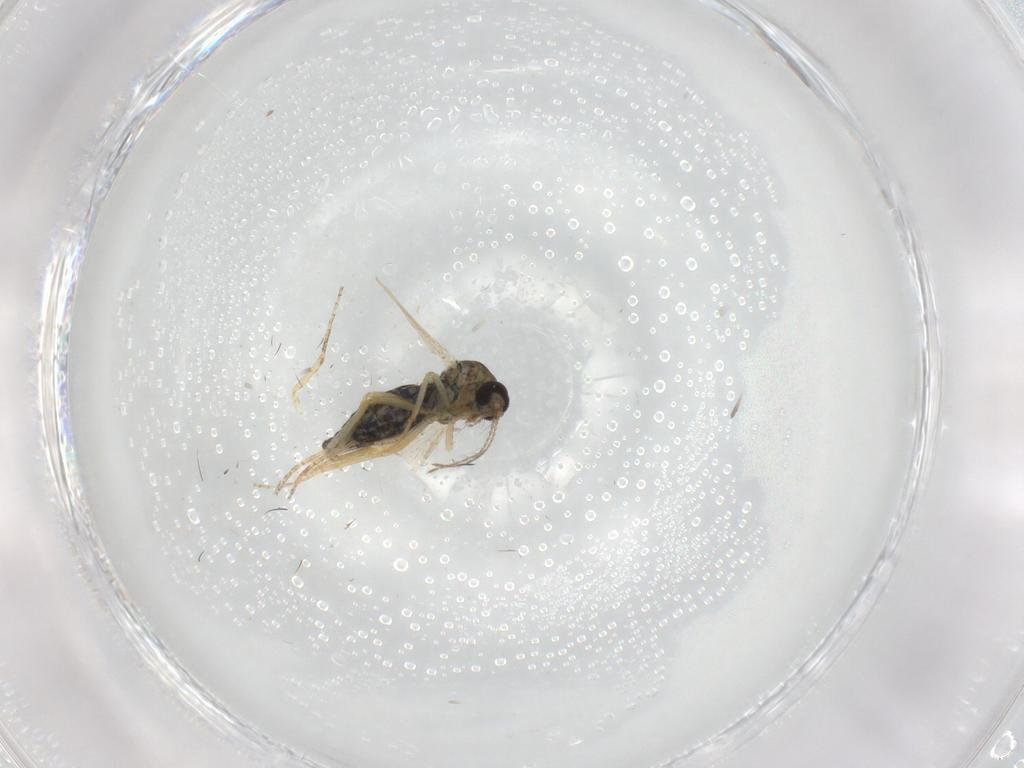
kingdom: Animalia
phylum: Arthropoda
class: Insecta
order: Diptera
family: Ceratopogonidae
